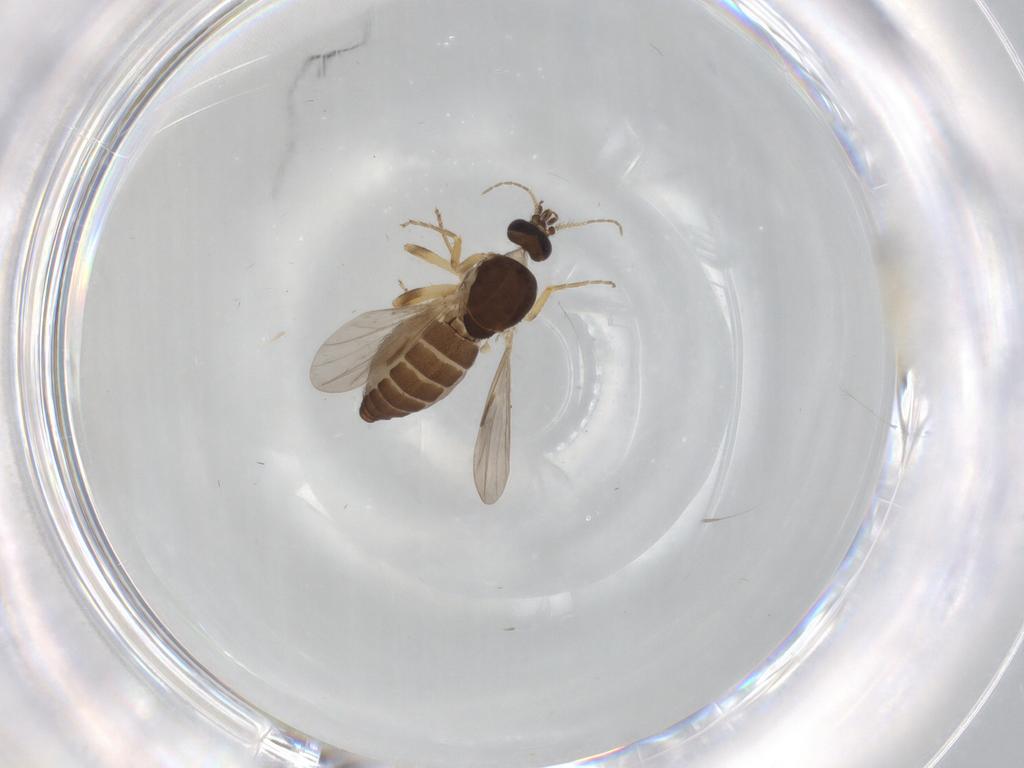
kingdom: Animalia
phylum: Arthropoda
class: Insecta
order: Diptera
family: Ceratopogonidae
